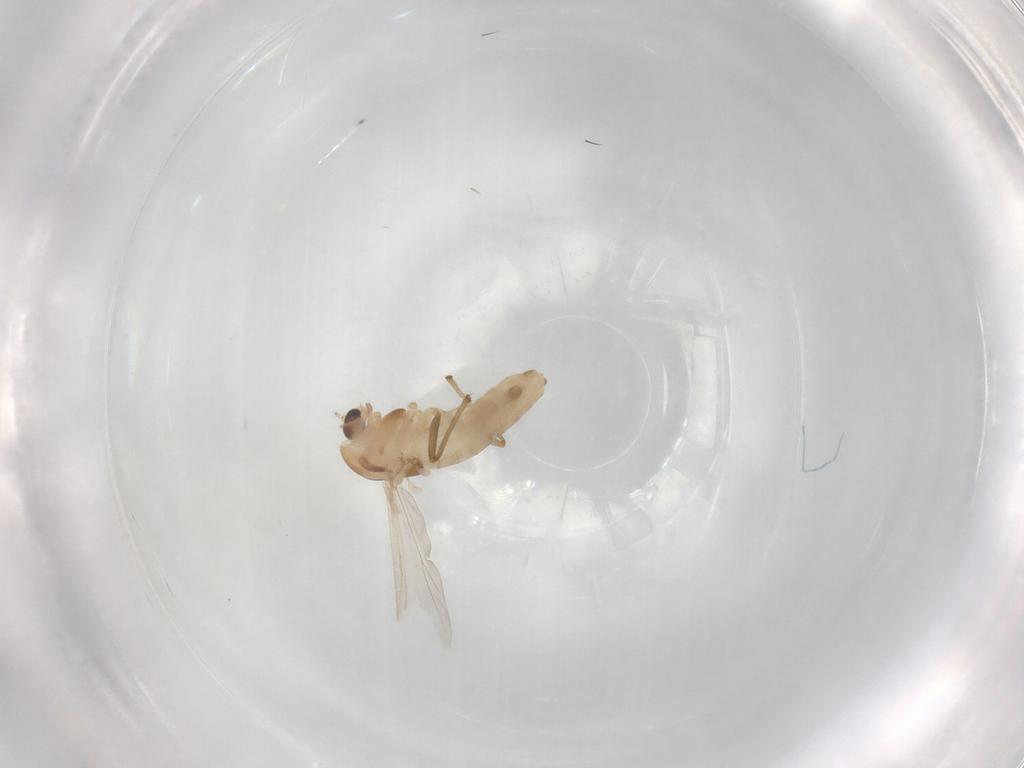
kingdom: Animalia
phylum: Arthropoda
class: Insecta
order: Diptera
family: Chironomidae
